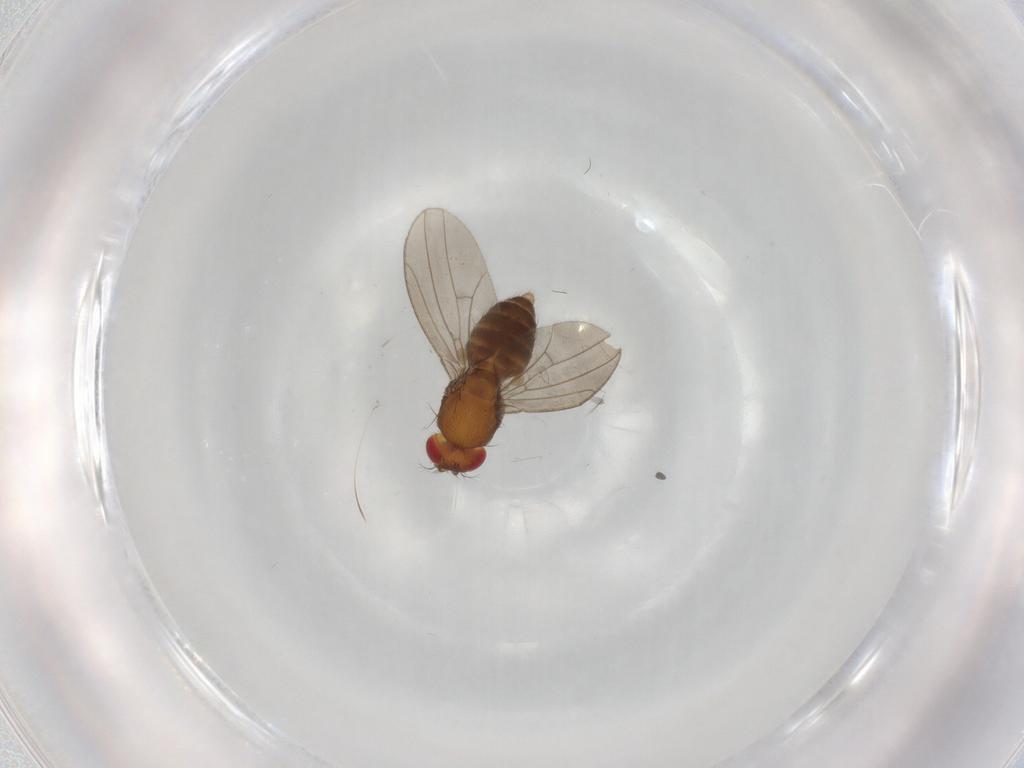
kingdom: Animalia
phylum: Arthropoda
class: Insecta
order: Diptera
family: Drosophilidae
